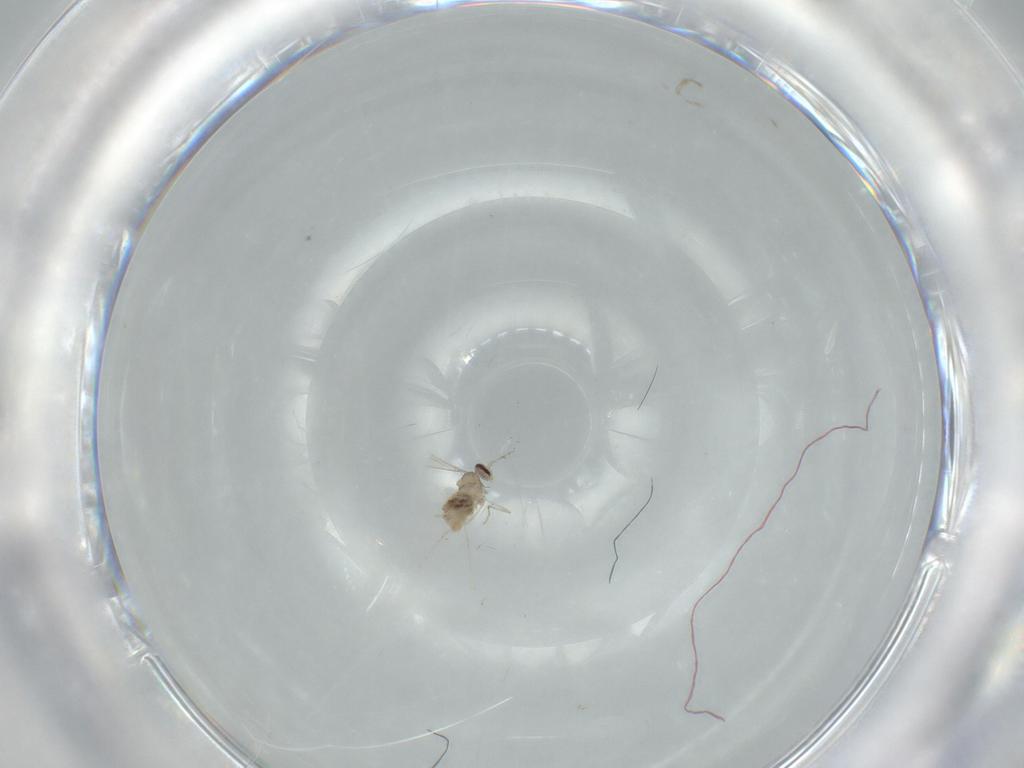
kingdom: Animalia
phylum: Arthropoda
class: Insecta
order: Diptera
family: Cecidomyiidae
